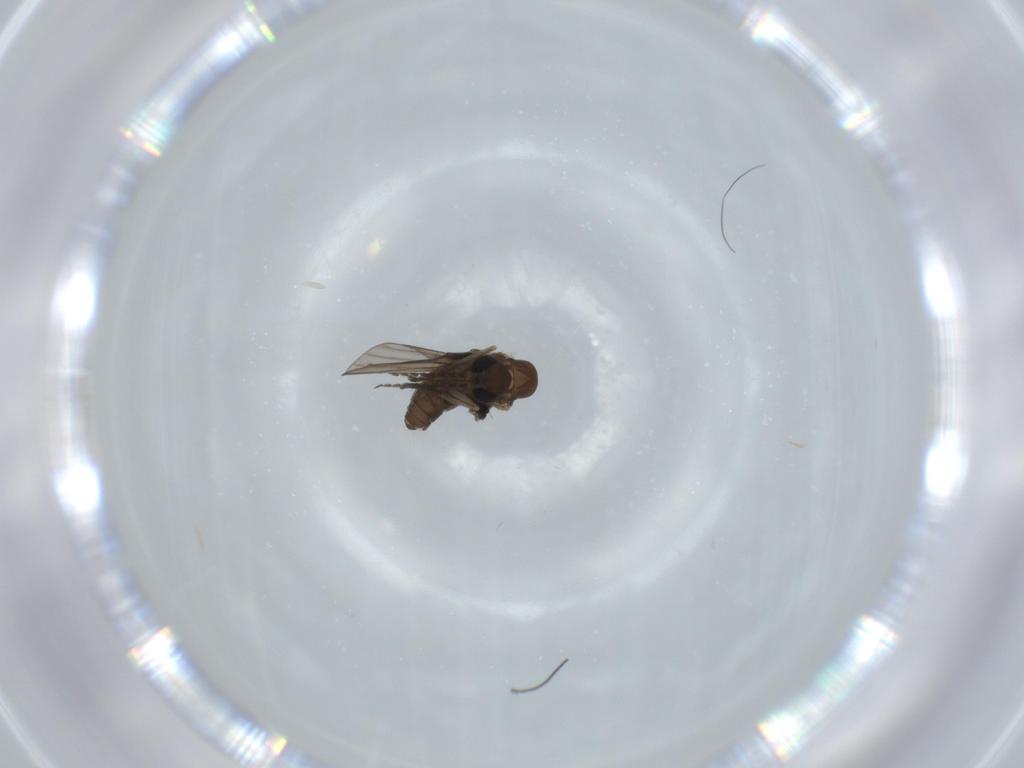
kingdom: Animalia
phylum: Arthropoda
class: Insecta
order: Diptera
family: Psychodidae
